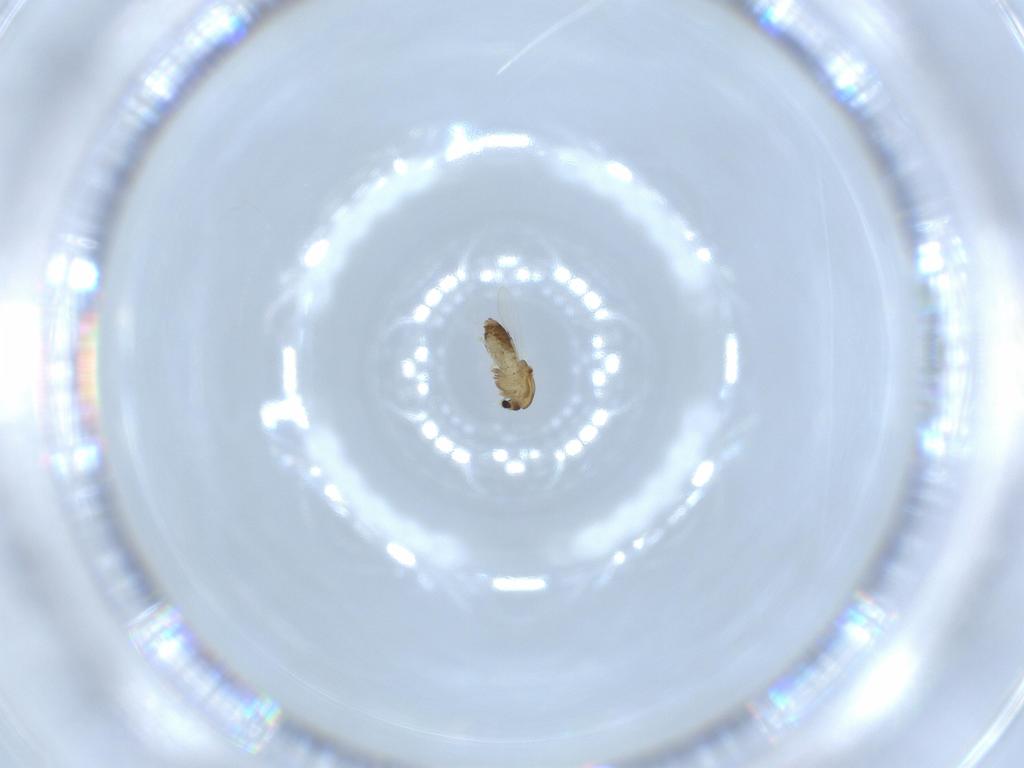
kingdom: Animalia
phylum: Arthropoda
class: Insecta
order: Diptera
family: Chironomidae
